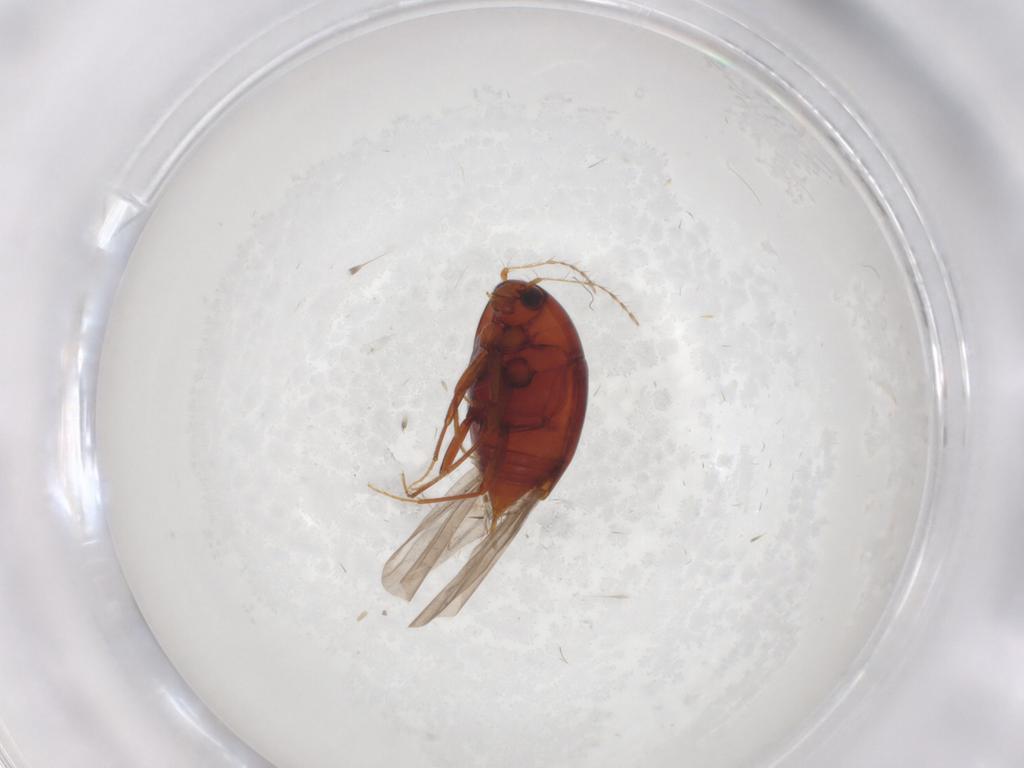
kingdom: Animalia
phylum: Arthropoda
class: Insecta
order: Coleoptera
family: Staphylinidae
